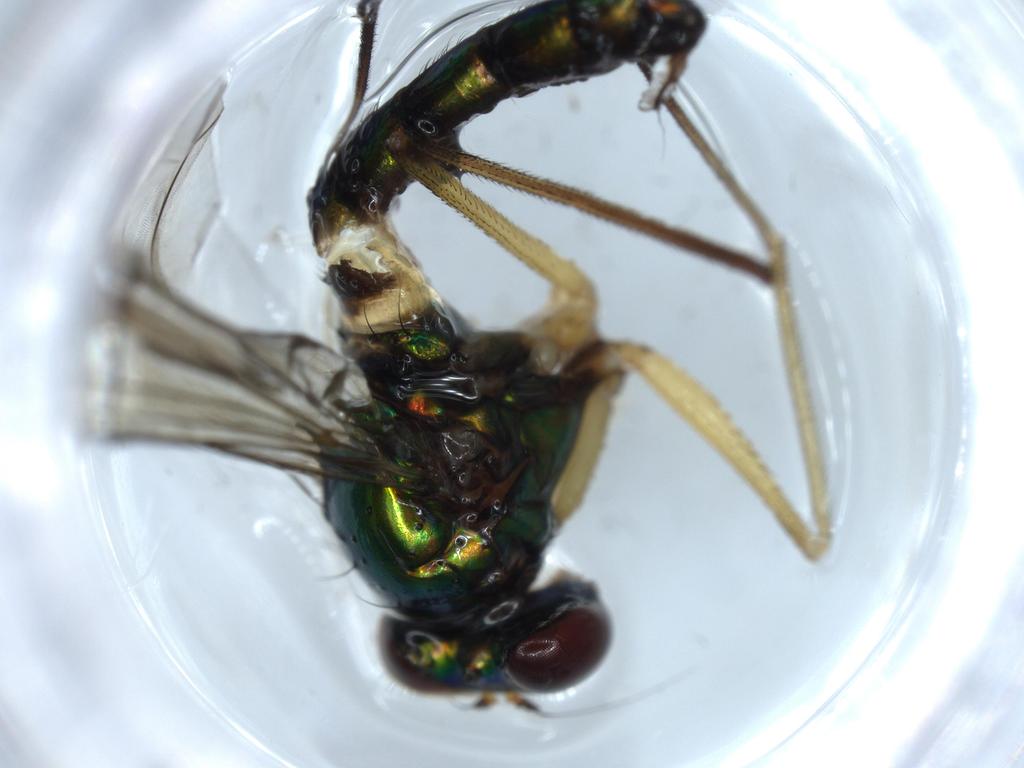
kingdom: Animalia
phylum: Arthropoda
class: Insecta
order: Diptera
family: Dolichopodidae
